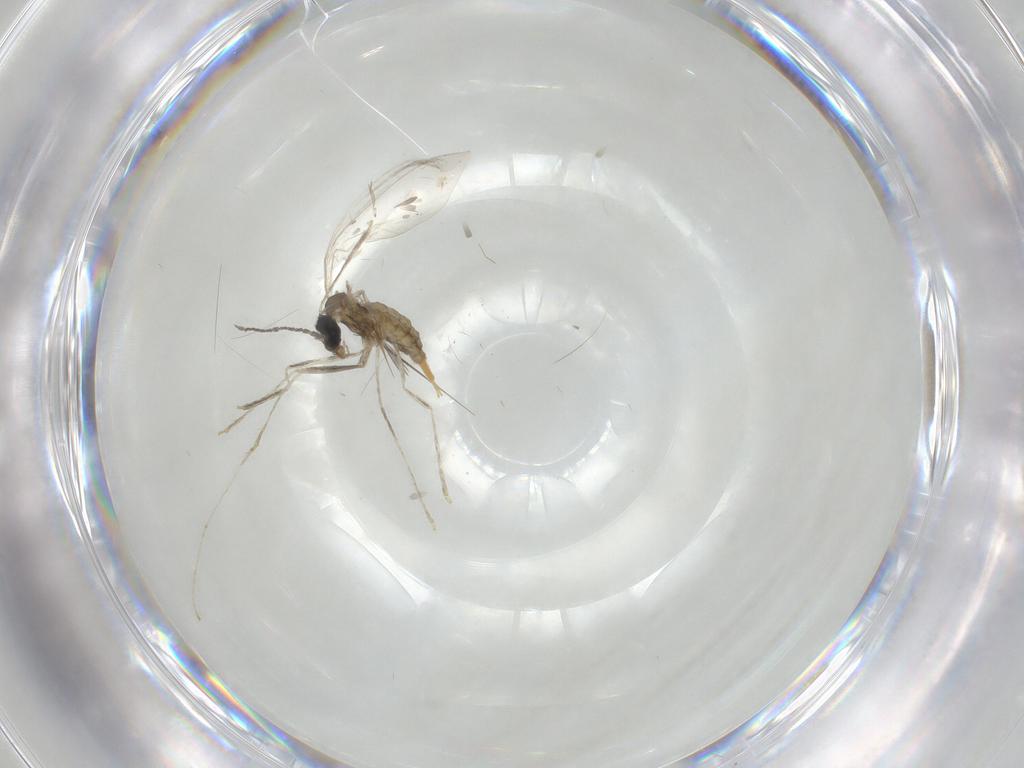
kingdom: Animalia
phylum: Arthropoda
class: Insecta
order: Diptera
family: Cecidomyiidae
